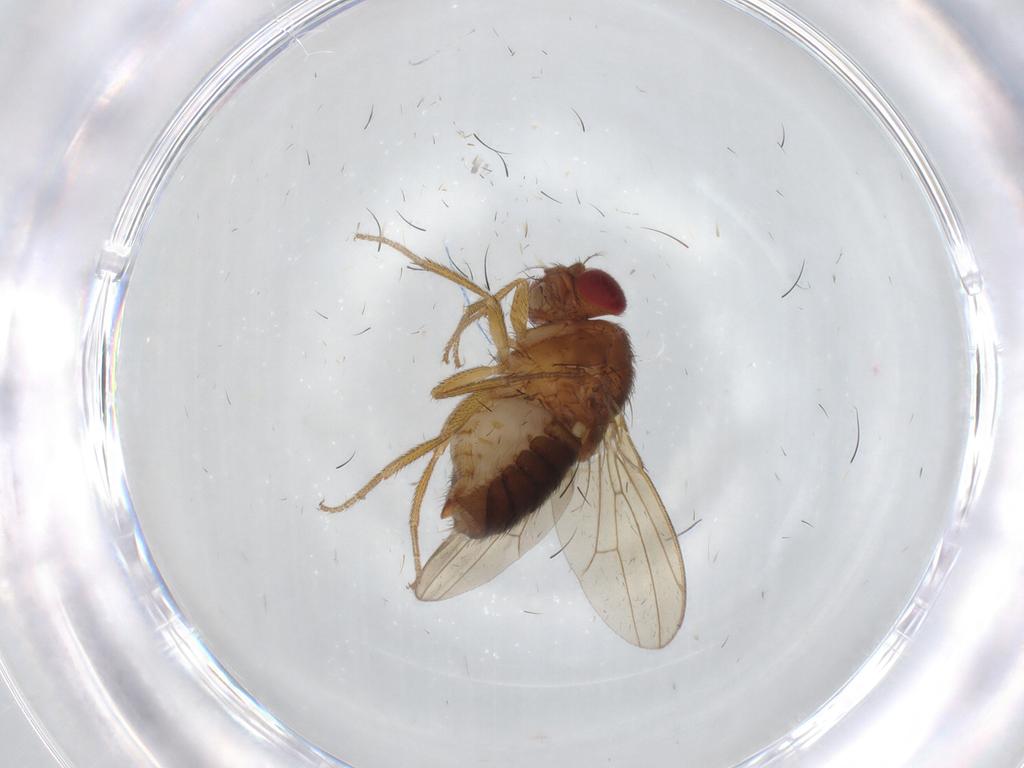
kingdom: Animalia
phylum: Arthropoda
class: Insecta
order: Diptera
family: Drosophilidae
